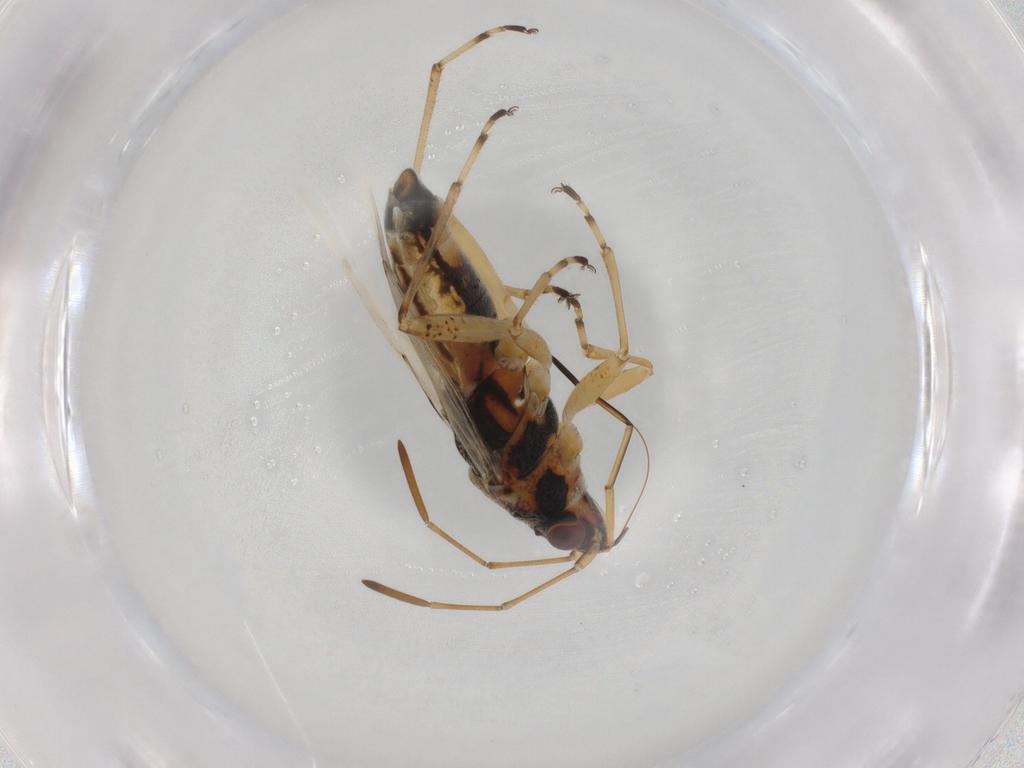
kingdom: Animalia
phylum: Arthropoda
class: Insecta
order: Hemiptera
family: Lygaeidae
